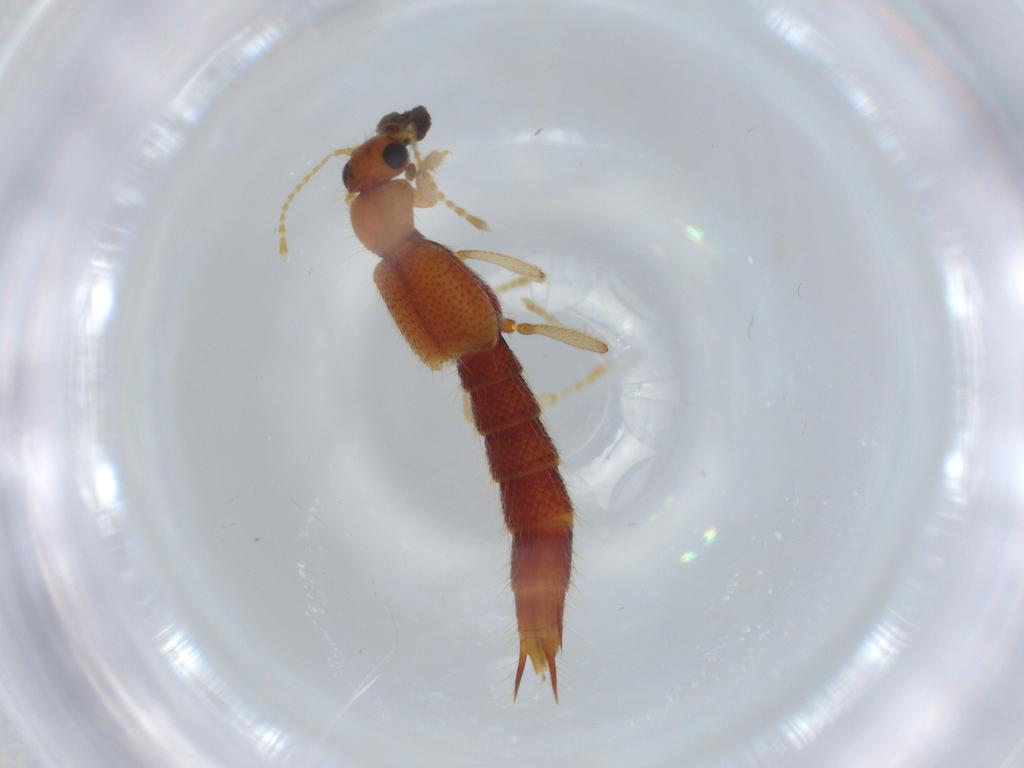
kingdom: Animalia
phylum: Arthropoda
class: Insecta
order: Coleoptera
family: Staphylinidae
